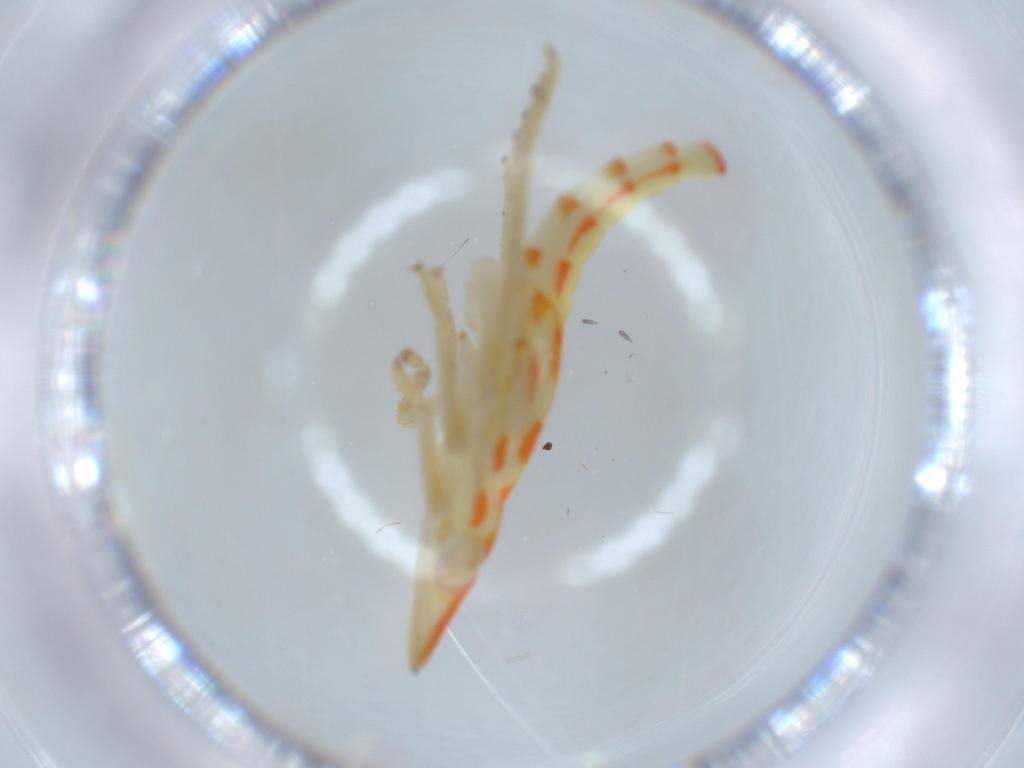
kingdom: Animalia
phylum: Arthropoda
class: Insecta
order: Hemiptera
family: Tropiduchidae
